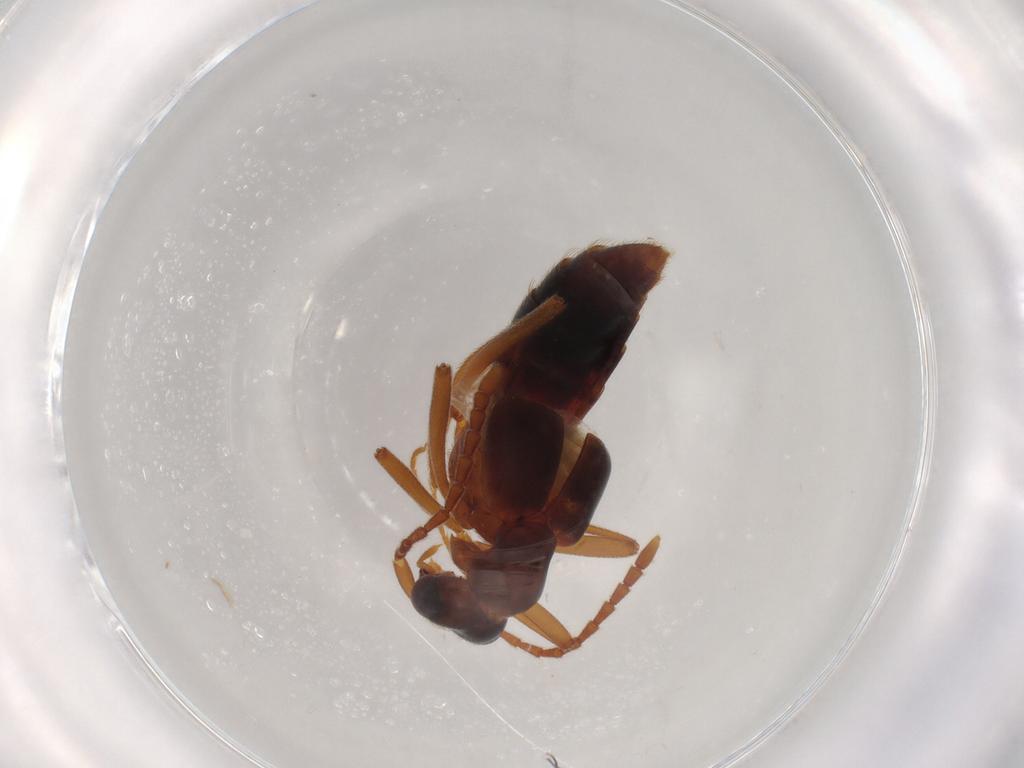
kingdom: Animalia
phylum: Arthropoda
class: Insecta
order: Coleoptera
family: Staphylinidae
